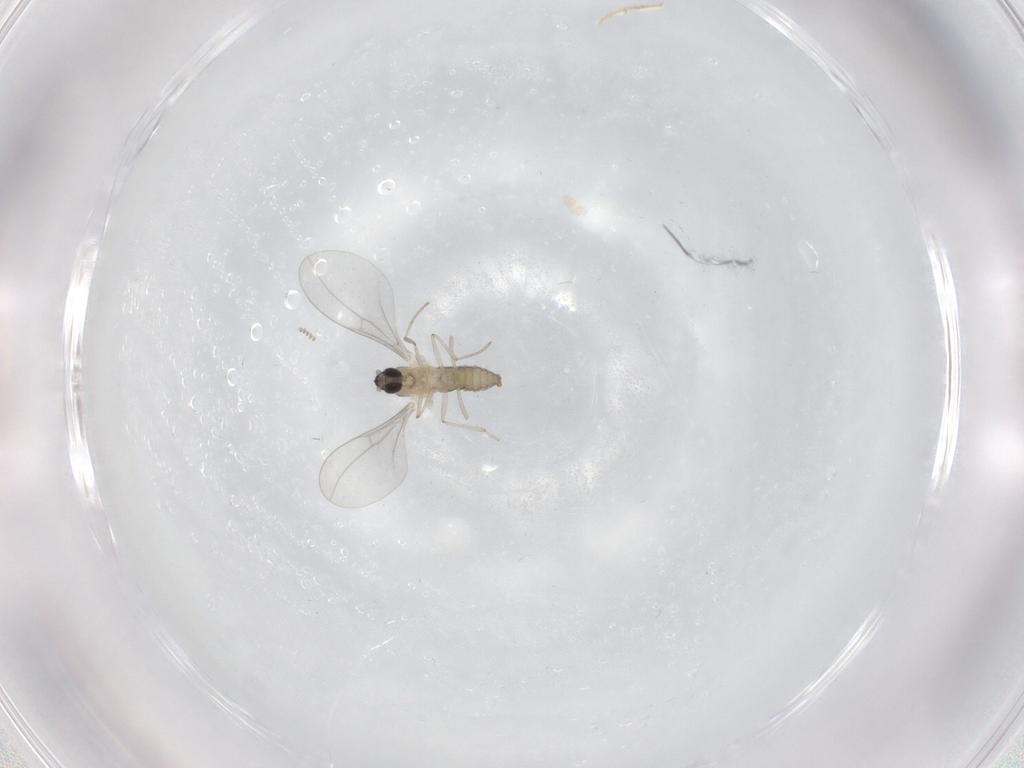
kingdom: Animalia
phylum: Arthropoda
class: Insecta
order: Diptera
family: Cecidomyiidae
